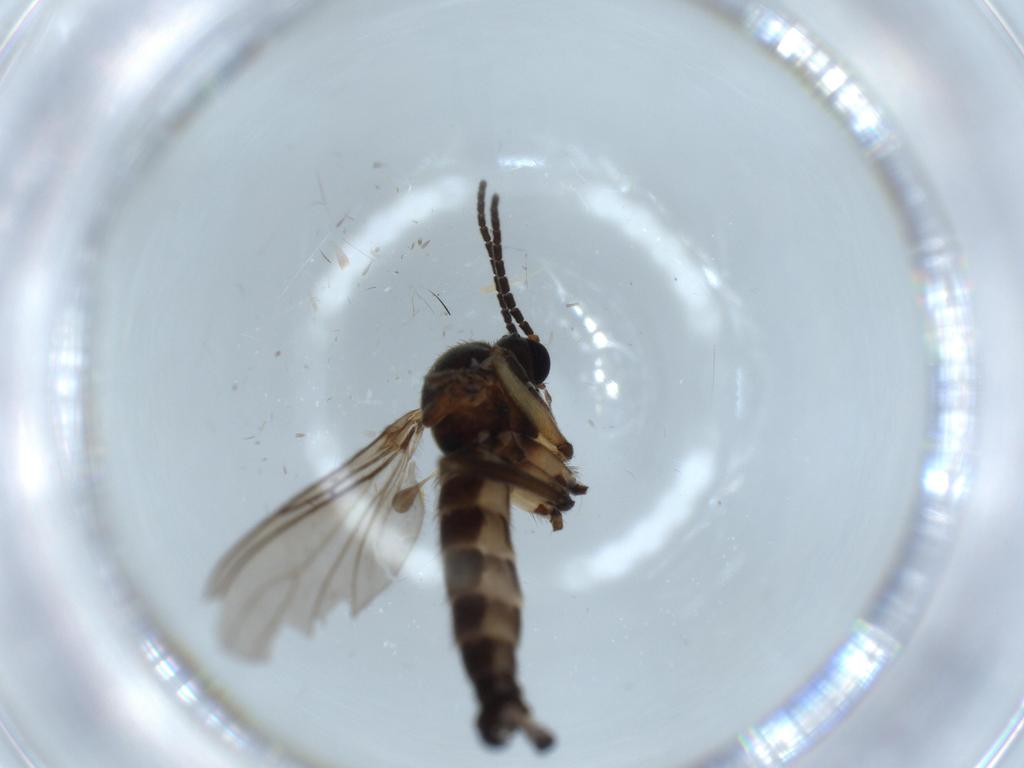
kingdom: Animalia
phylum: Arthropoda
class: Insecta
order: Diptera
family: Sciaridae
